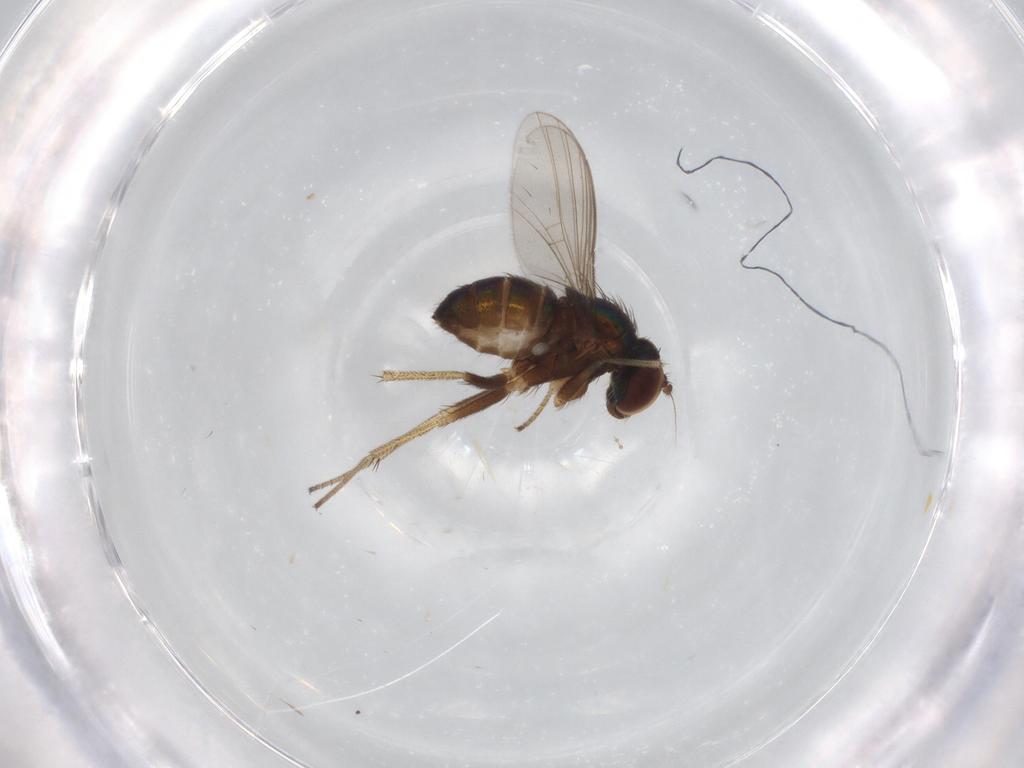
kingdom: Animalia
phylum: Arthropoda
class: Insecta
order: Diptera
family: Dolichopodidae
